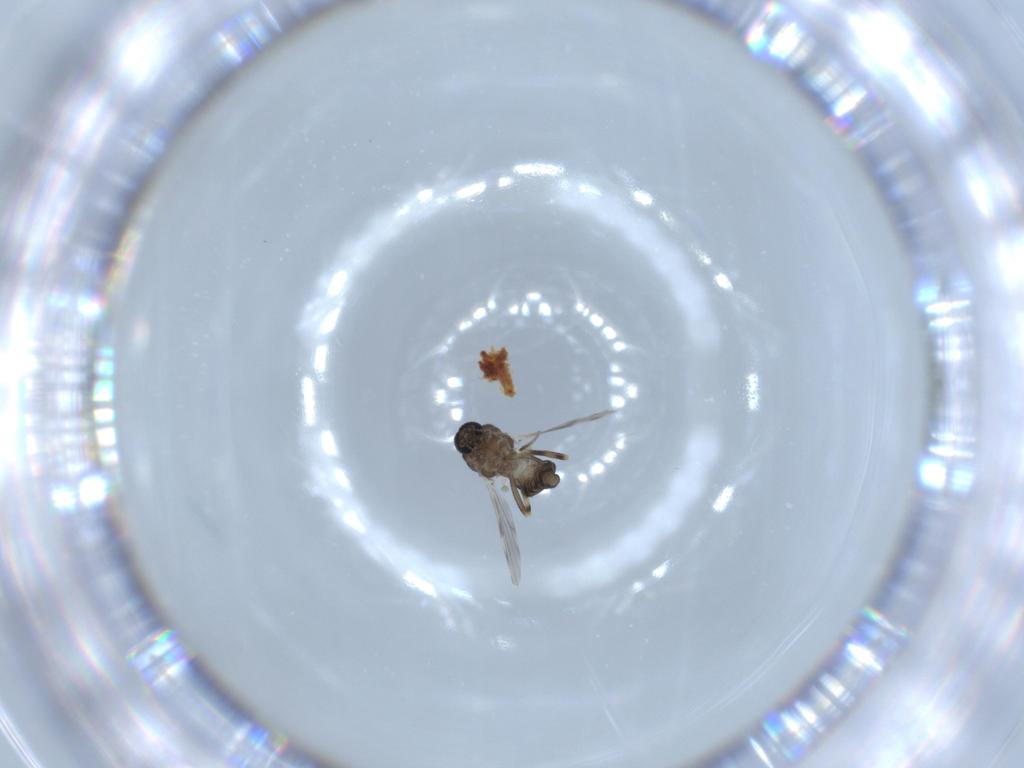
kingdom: Animalia
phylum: Arthropoda
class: Insecta
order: Diptera
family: Ceratopogonidae
